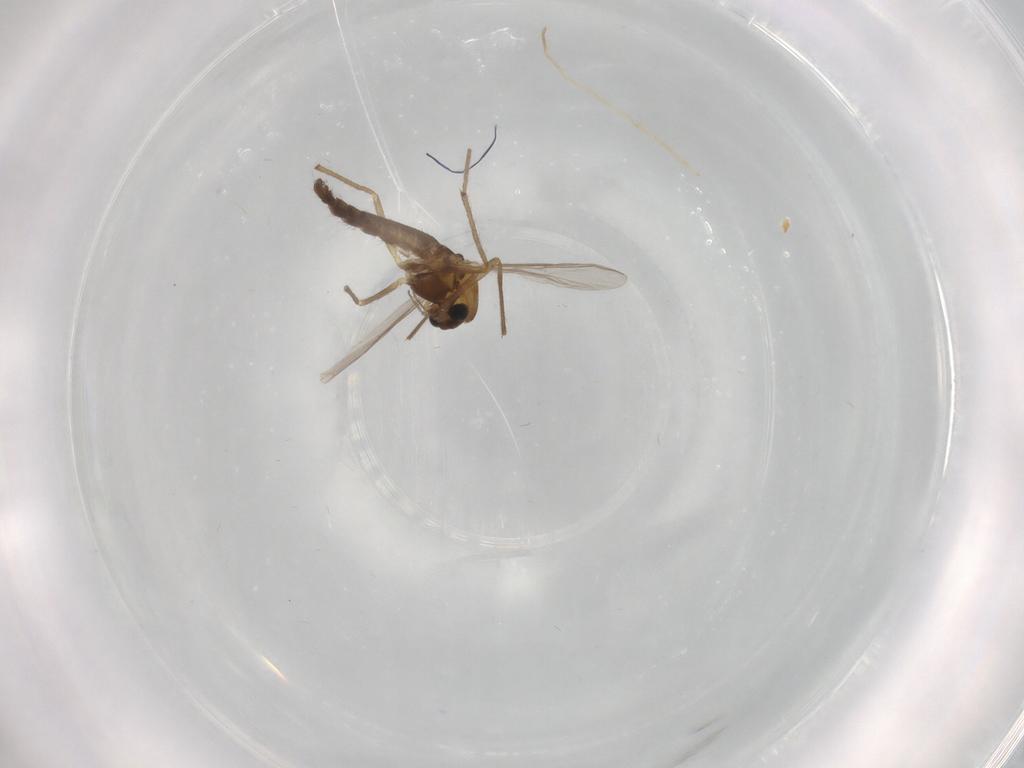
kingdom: Animalia
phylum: Arthropoda
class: Insecta
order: Diptera
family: Chironomidae
